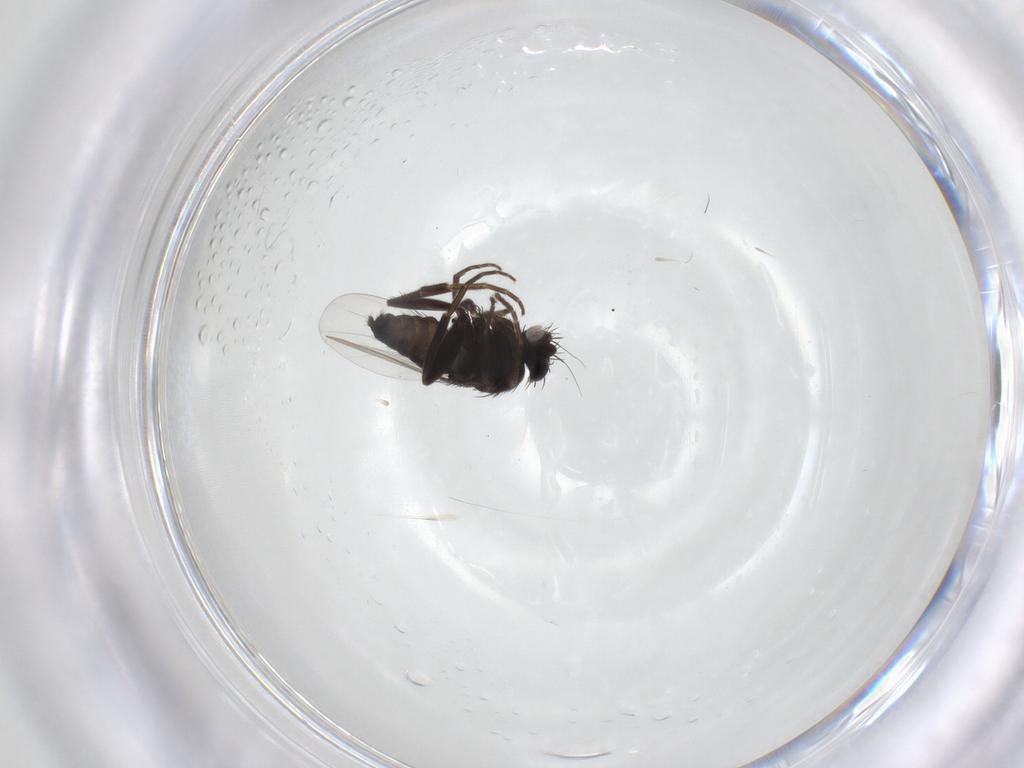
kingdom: Animalia
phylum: Arthropoda
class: Insecta
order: Diptera
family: Phoridae
